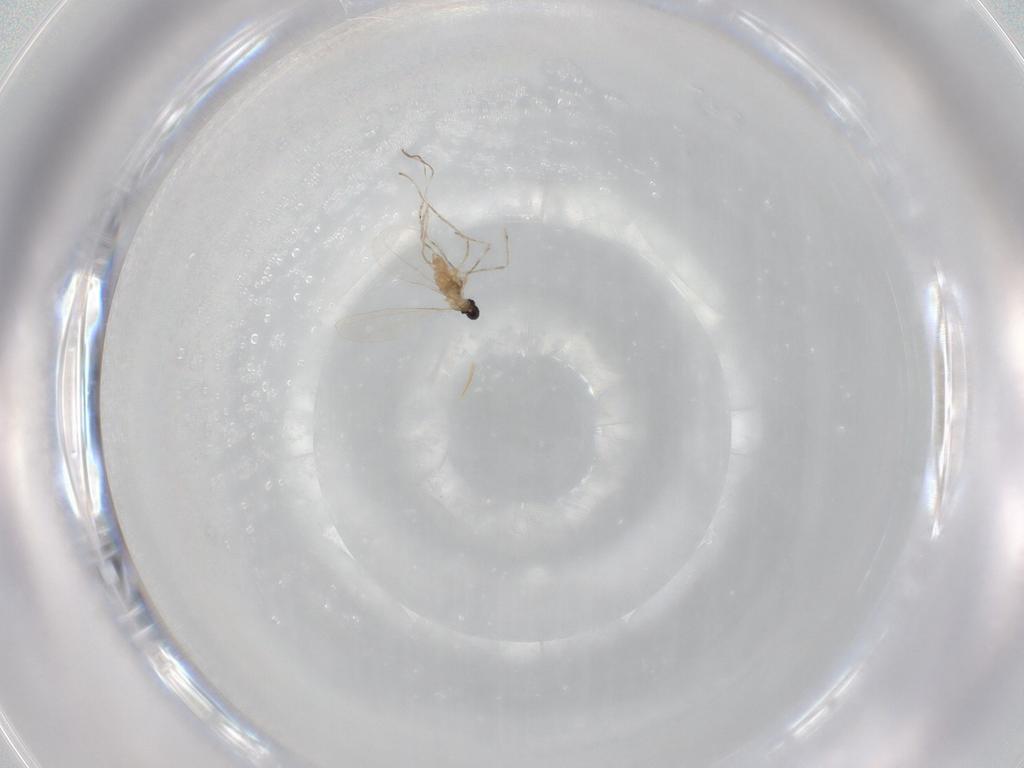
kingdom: Animalia
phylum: Arthropoda
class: Insecta
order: Diptera
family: Cecidomyiidae
